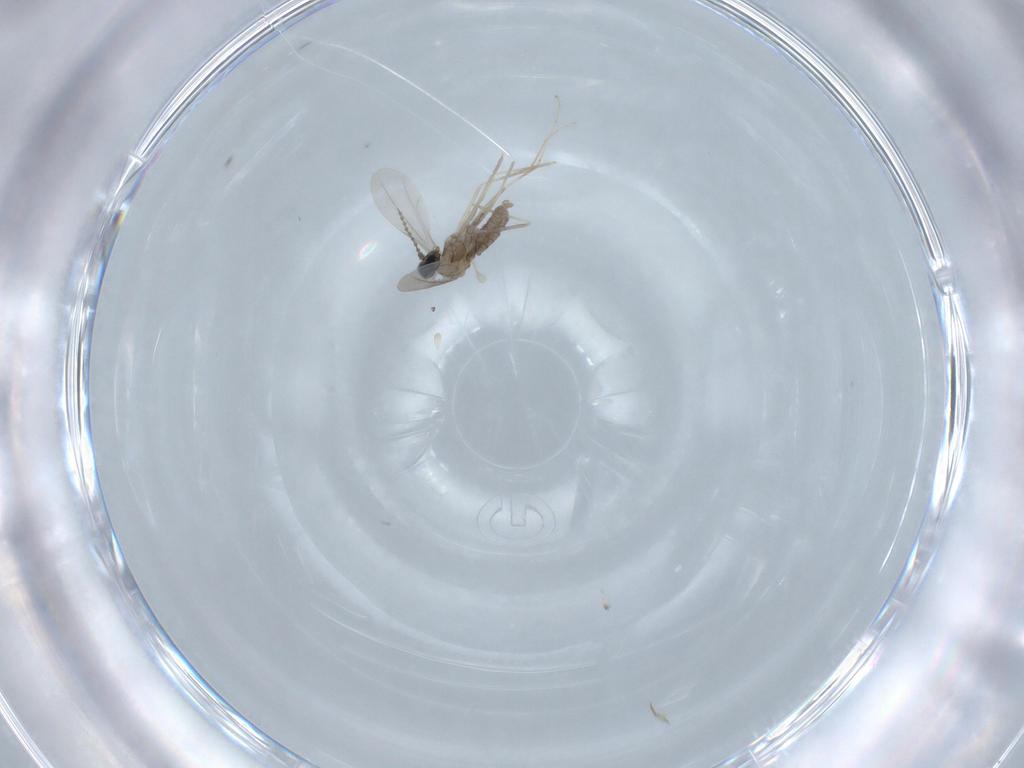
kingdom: Animalia
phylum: Arthropoda
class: Insecta
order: Diptera
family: Cecidomyiidae
